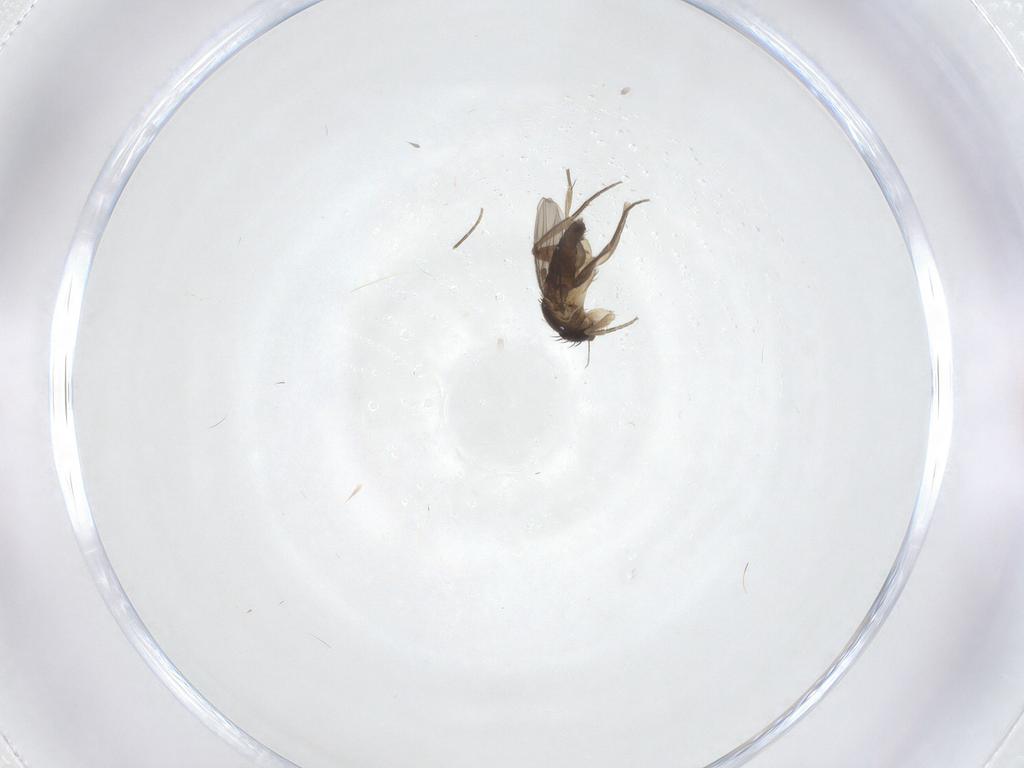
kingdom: Animalia
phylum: Arthropoda
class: Insecta
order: Diptera
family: Phoridae
